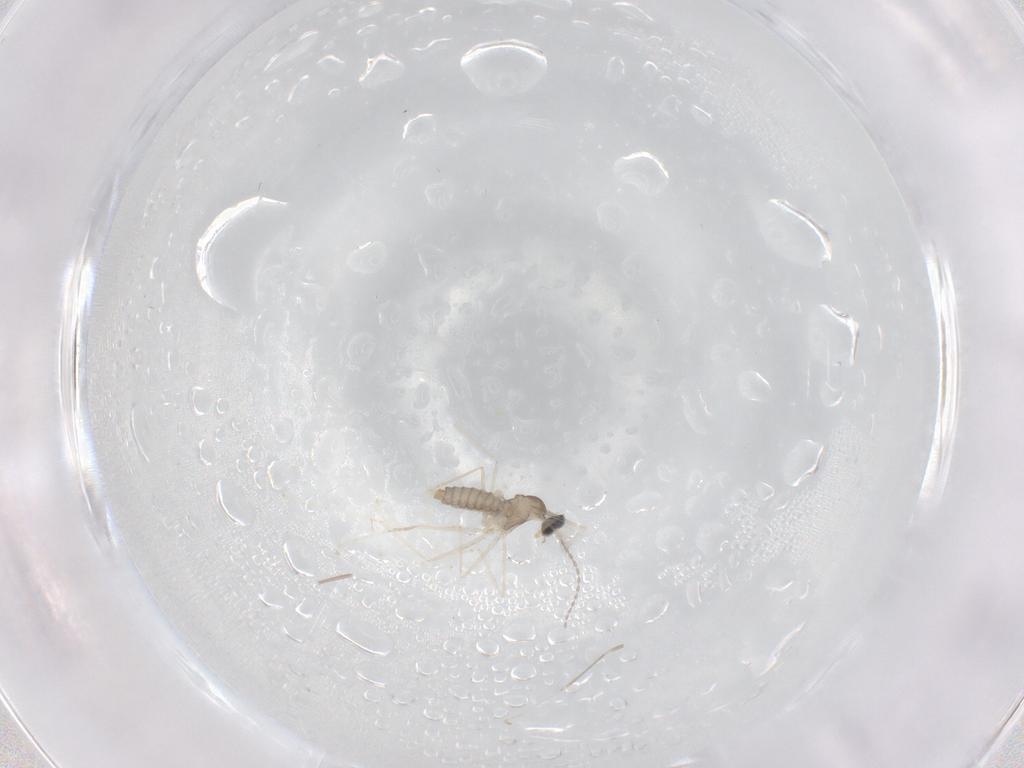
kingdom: Animalia
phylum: Arthropoda
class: Insecta
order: Diptera
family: Cecidomyiidae
